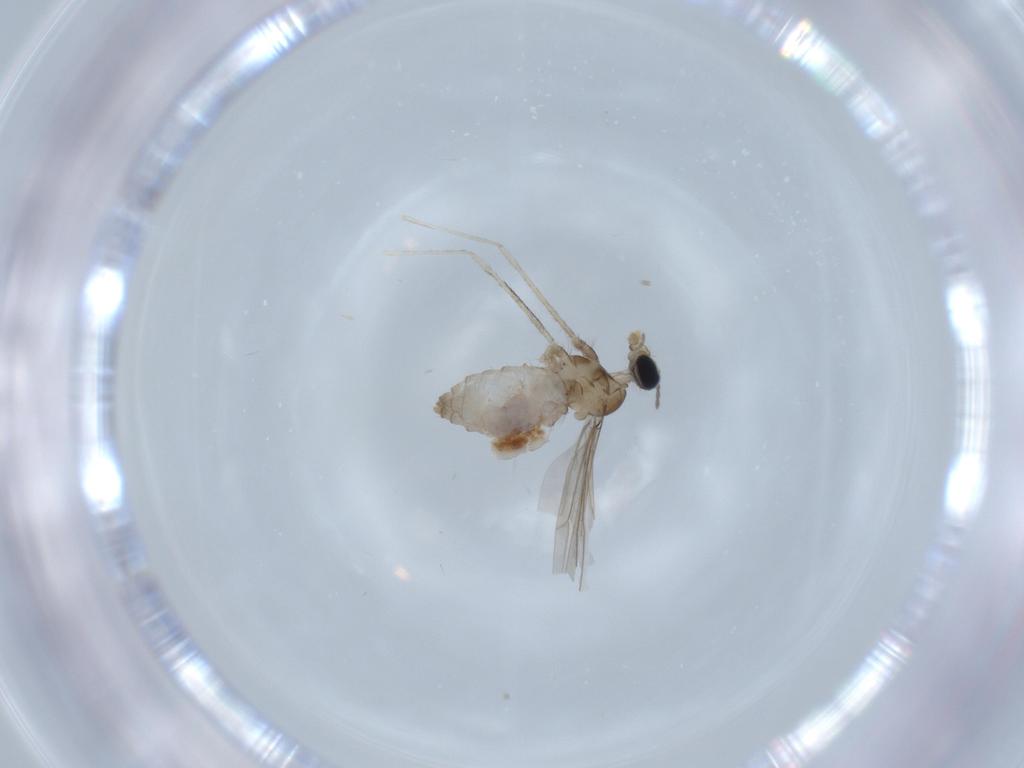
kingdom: Animalia
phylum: Arthropoda
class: Insecta
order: Diptera
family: Cecidomyiidae
